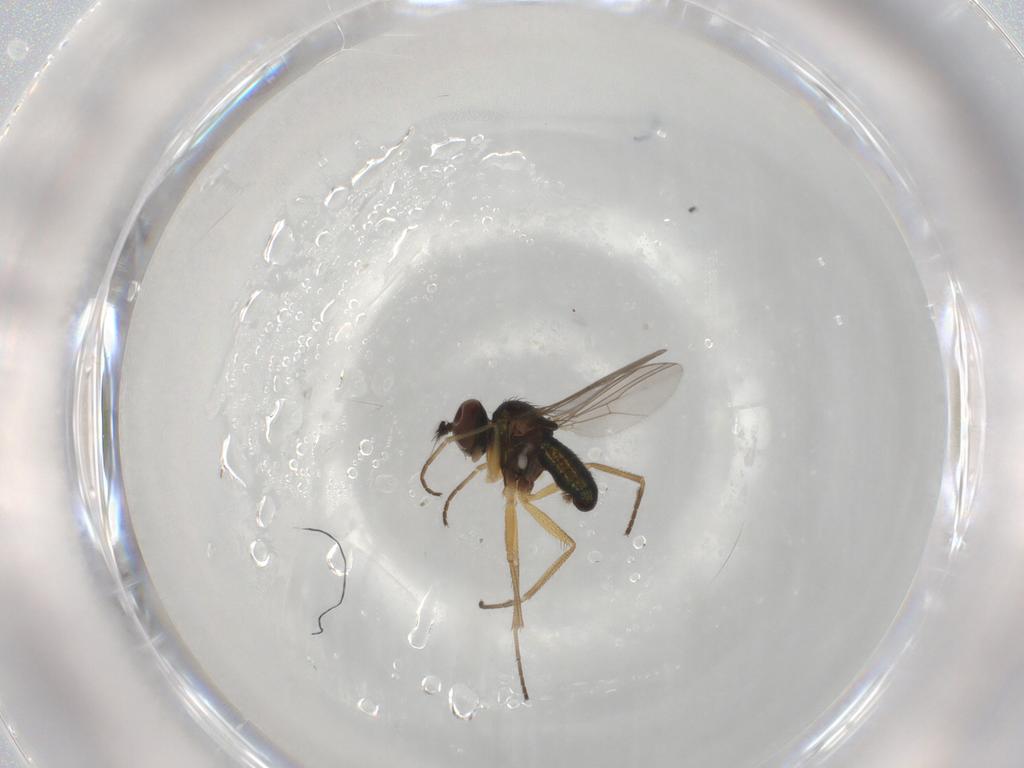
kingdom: Animalia
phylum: Arthropoda
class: Insecta
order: Diptera
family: Dolichopodidae
